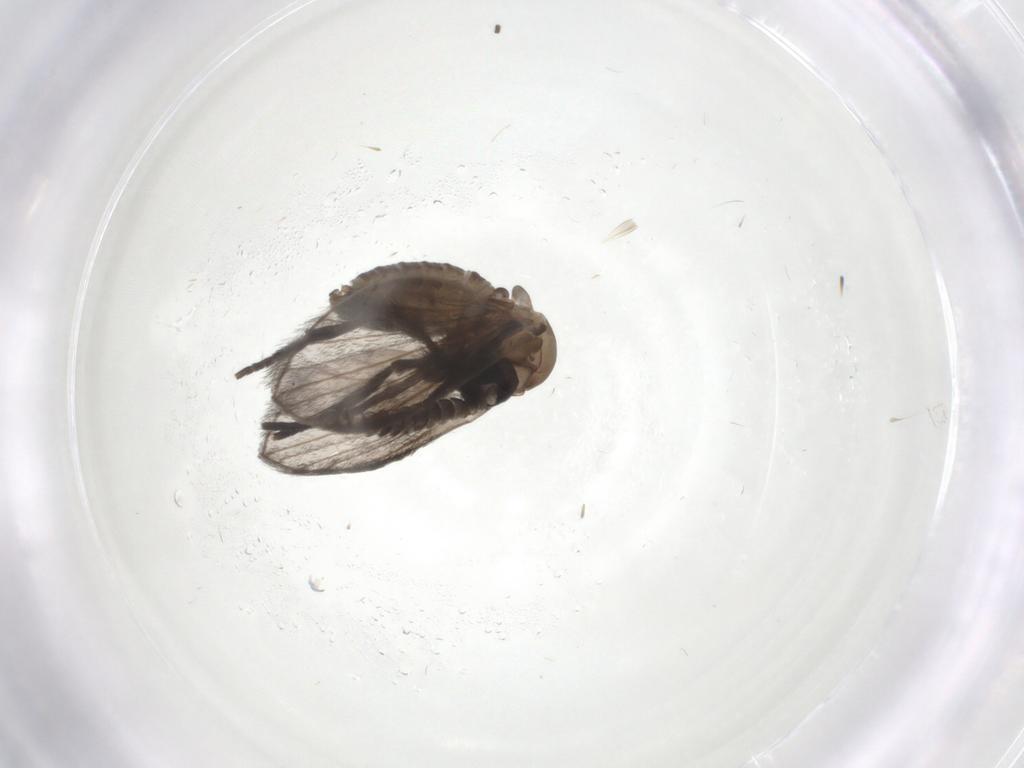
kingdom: Animalia
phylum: Arthropoda
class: Insecta
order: Diptera
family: Psychodidae
